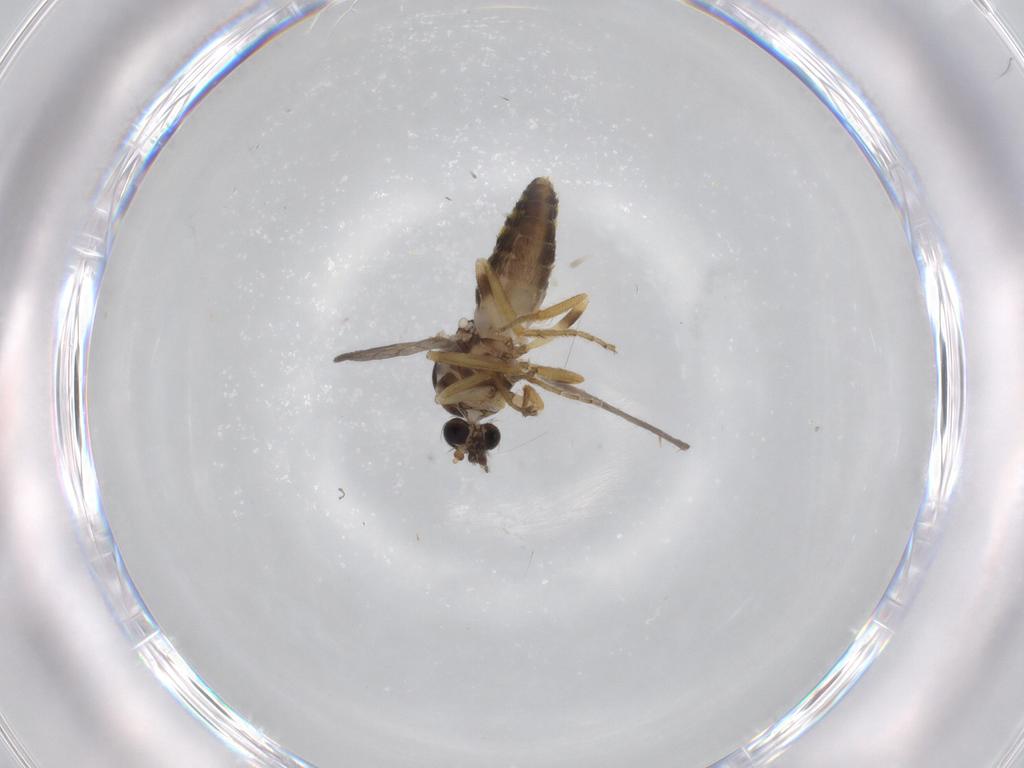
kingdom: Animalia
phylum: Arthropoda
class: Insecta
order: Diptera
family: Ceratopogonidae
